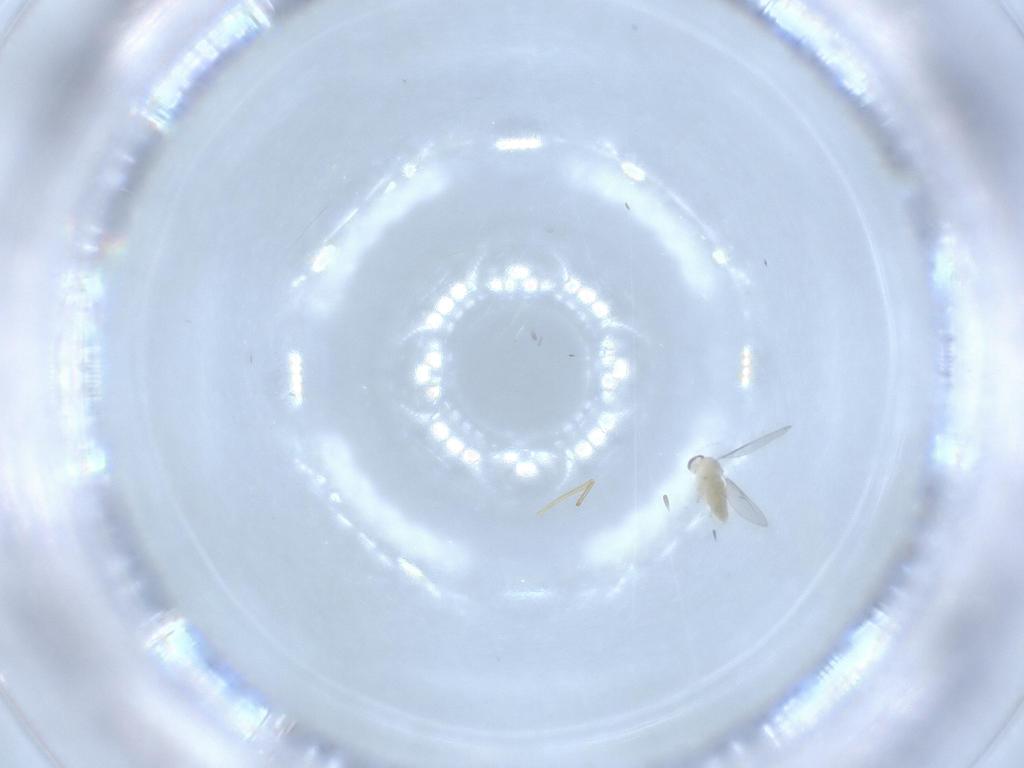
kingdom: Animalia
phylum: Arthropoda
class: Insecta
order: Diptera
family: Cecidomyiidae
